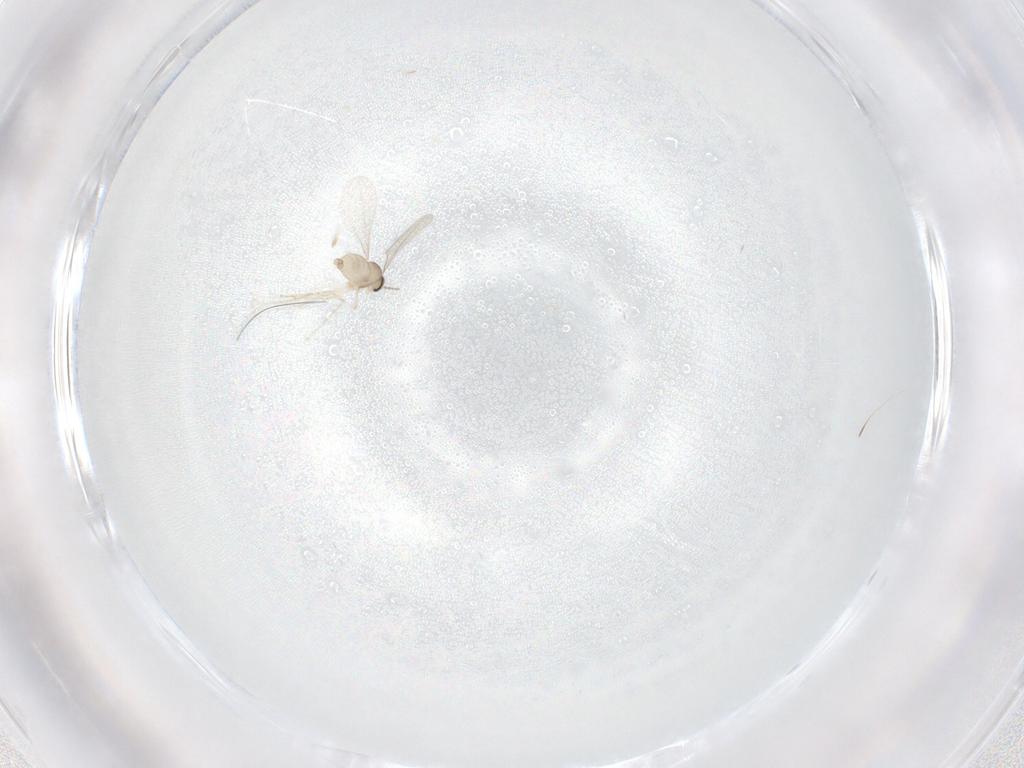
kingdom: Animalia
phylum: Arthropoda
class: Insecta
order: Diptera
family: Cecidomyiidae
